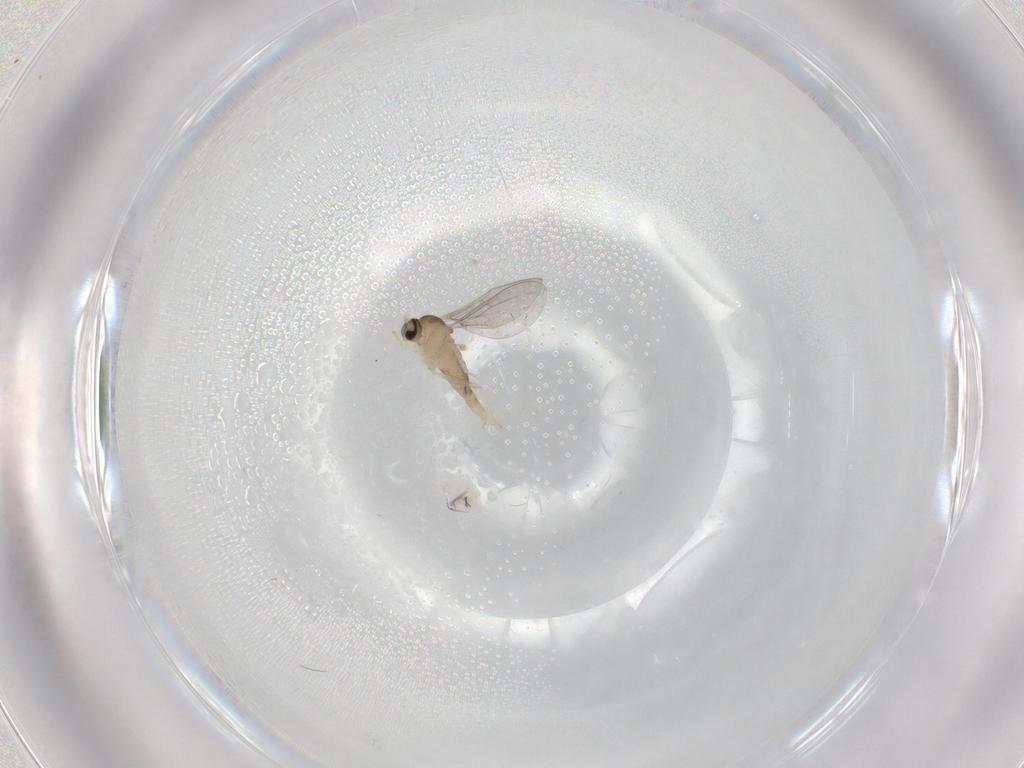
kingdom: Animalia
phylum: Arthropoda
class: Insecta
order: Diptera
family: Cecidomyiidae
